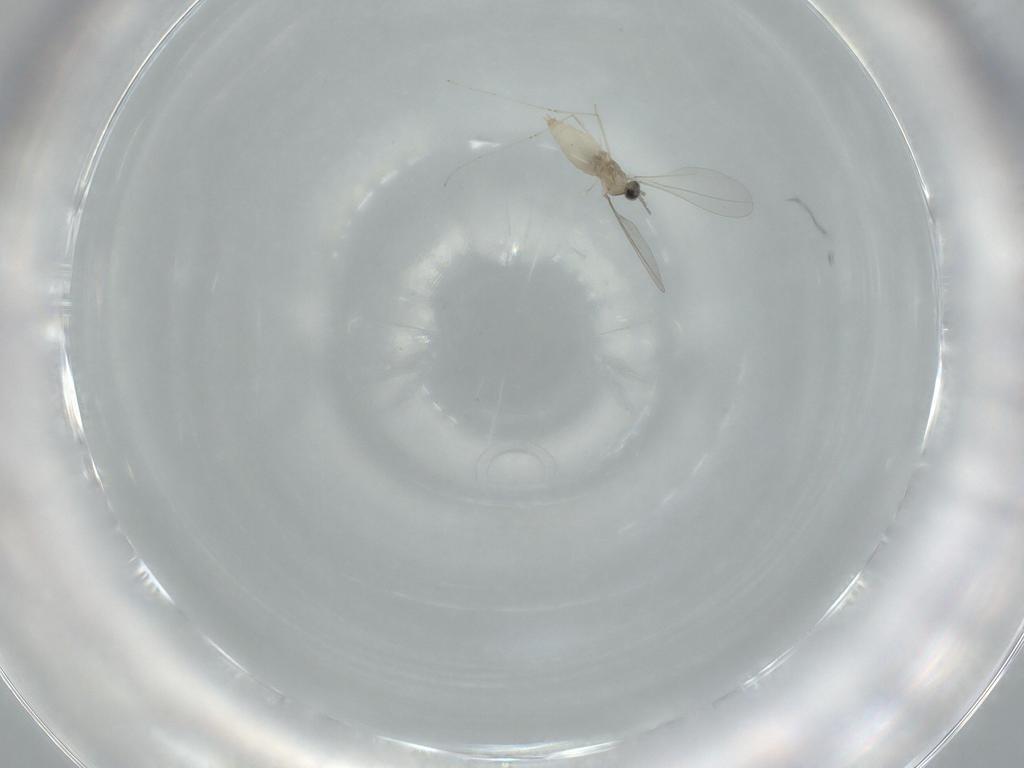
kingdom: Animalia
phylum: Arthropoda
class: Insecta
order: Diptera
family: Cecidomyiidae
